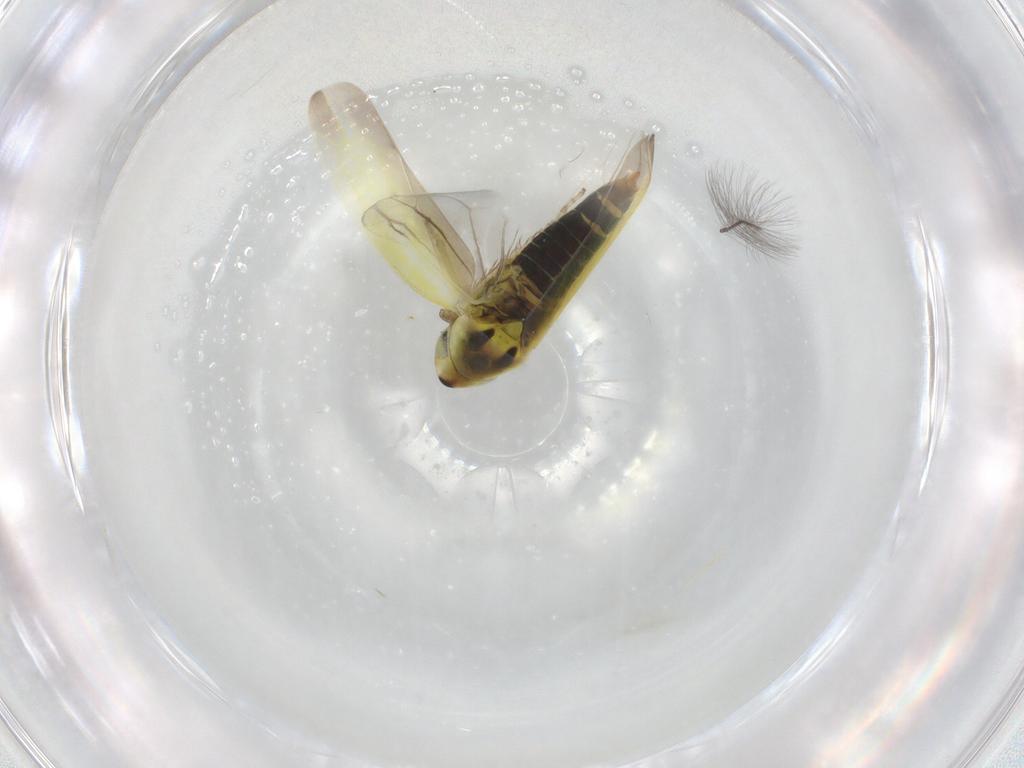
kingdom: Animalia
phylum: Arthropoda
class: Insecta
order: Hemiptera
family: Cicadellidae
